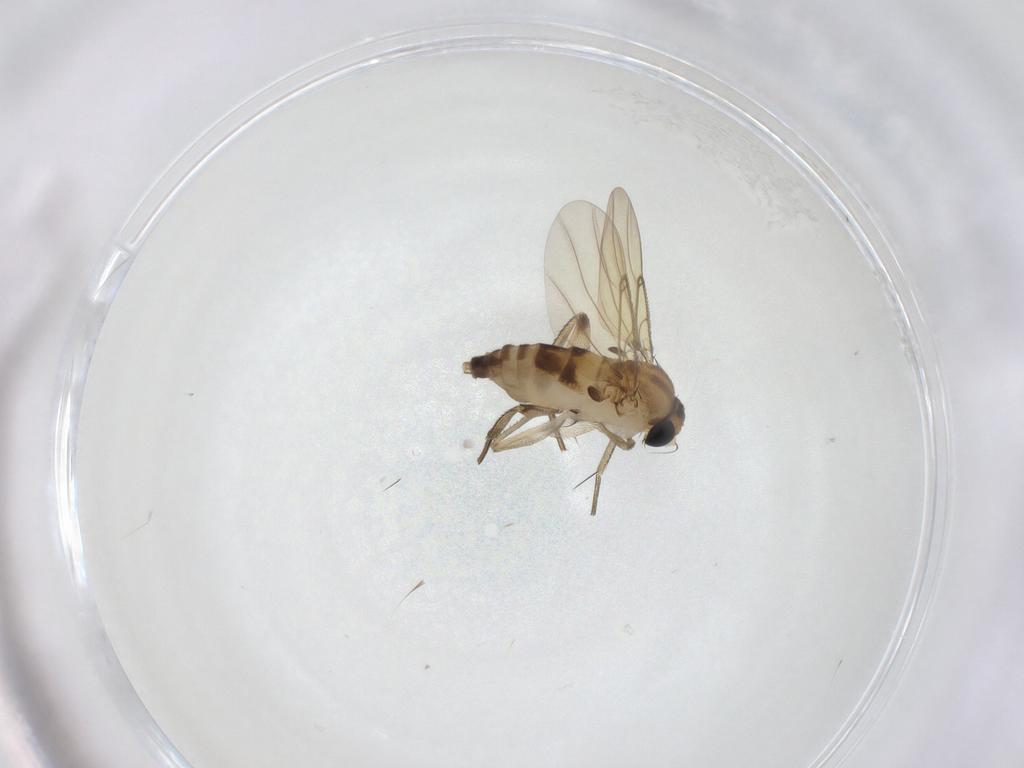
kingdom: Animalia
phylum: Arthropoda
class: Insecta
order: Diptera
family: Phoridae
